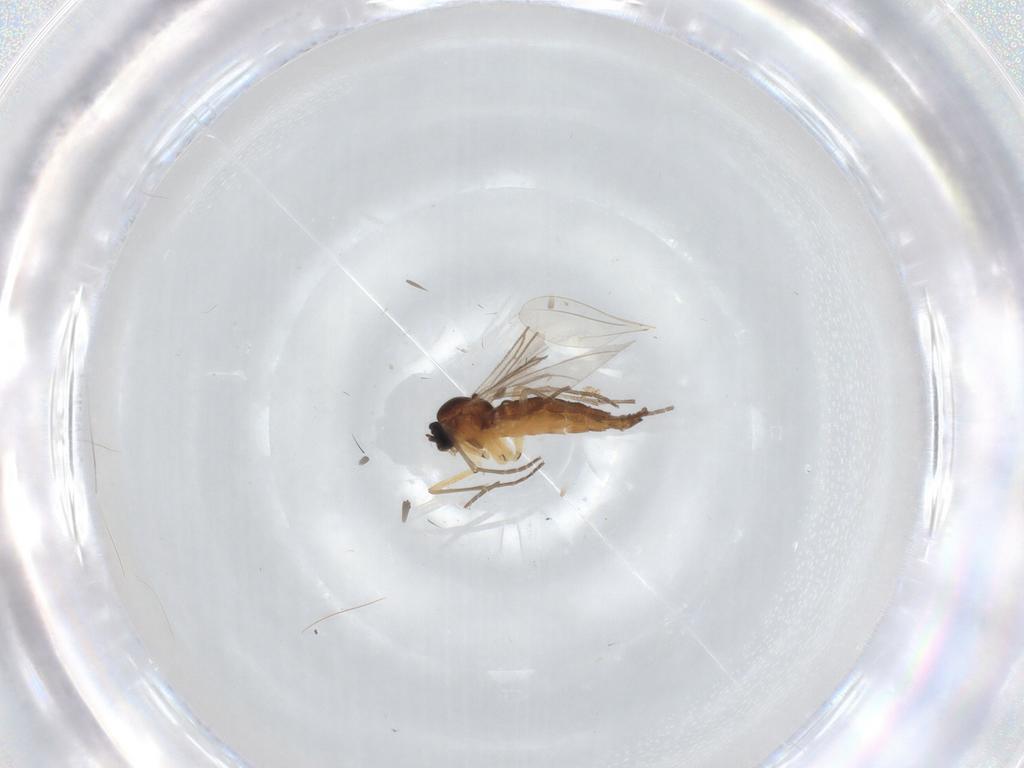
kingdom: Animalia
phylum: Arthropoda
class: Insecta
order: Diptera
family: Sciaridae
